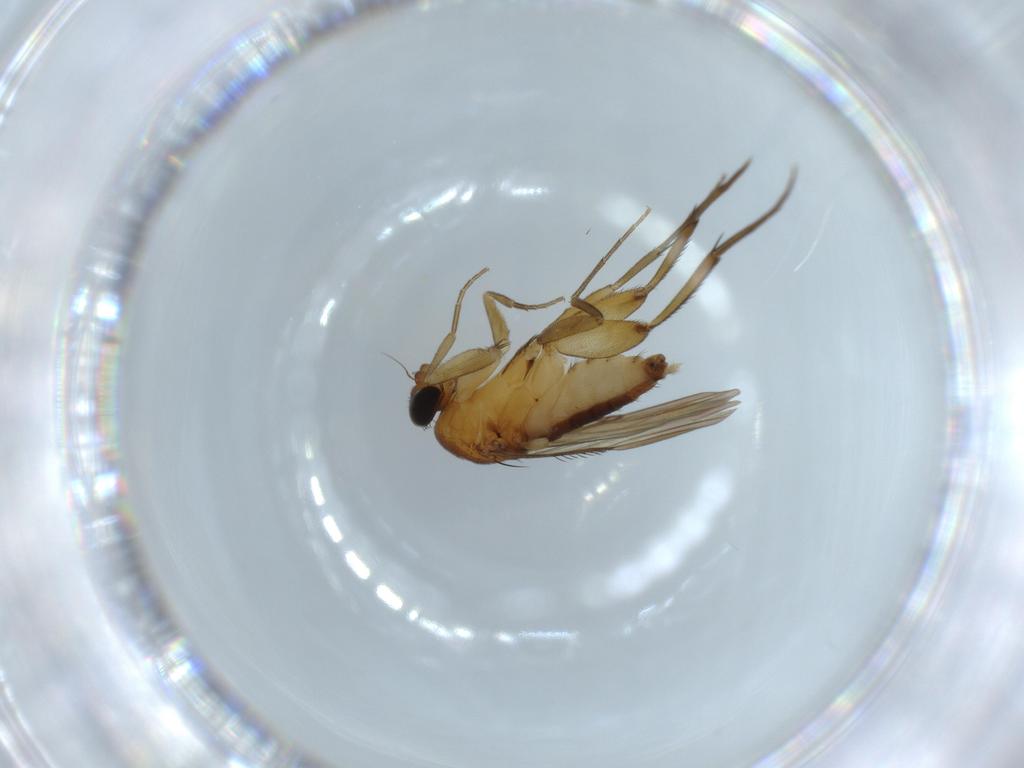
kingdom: Animalia
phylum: Arthropoda
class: Insecta
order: Diptera
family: Phoridae
